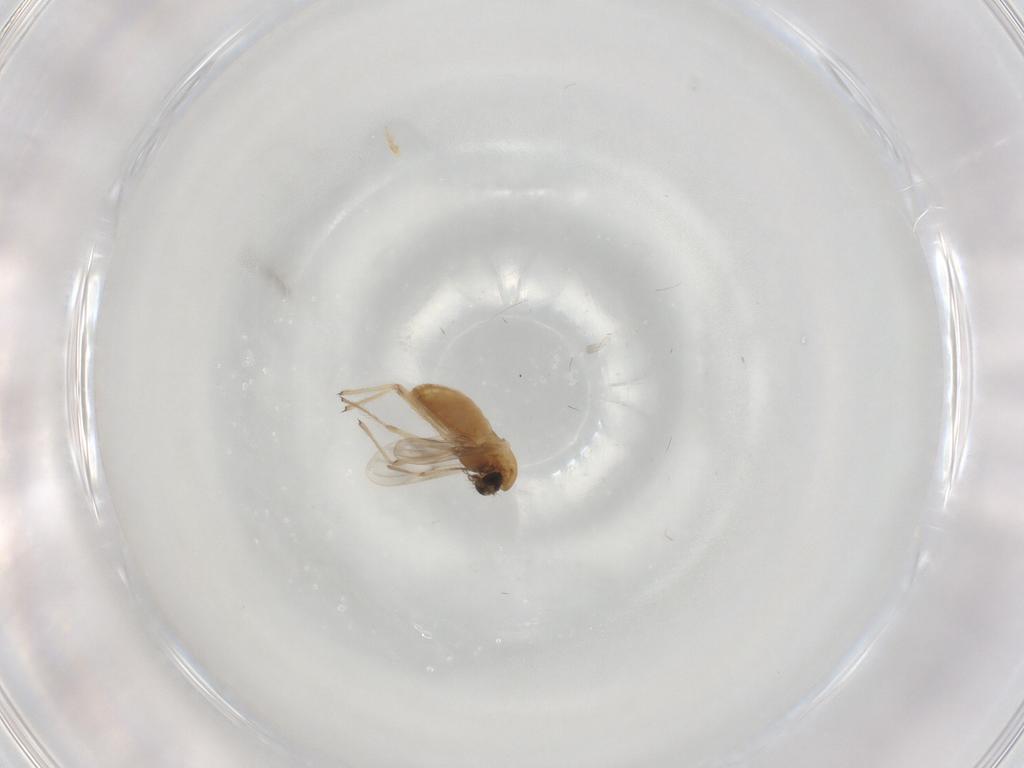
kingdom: Animalia
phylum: Arthropoda
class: Insecta
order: Diptera
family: Chironomidae
